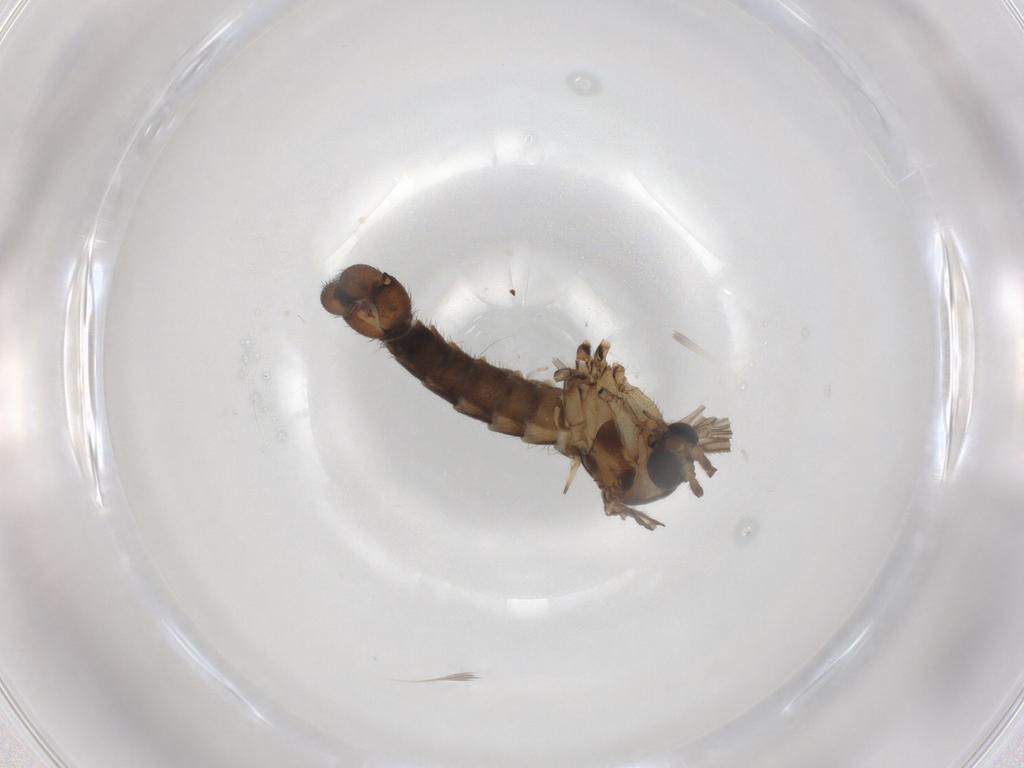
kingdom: Animalia
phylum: Arthropoda
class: Insecta
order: Diptera
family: Sciaridae
